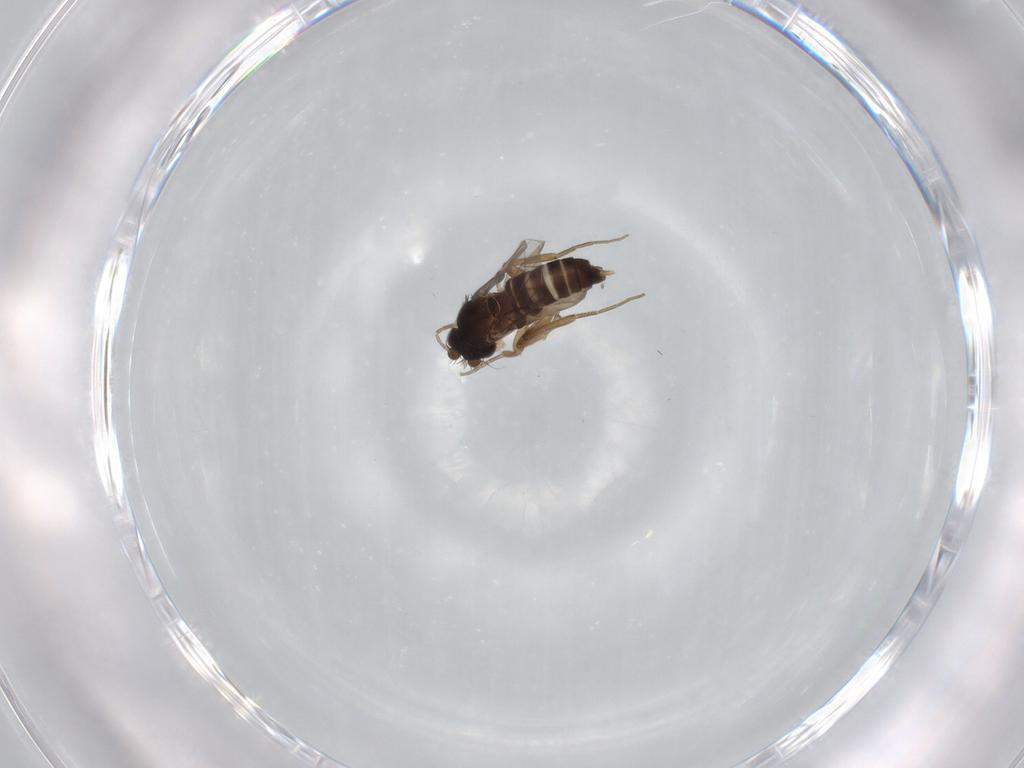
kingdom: Animalia
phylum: Arthropoda
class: Insecta
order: Diptera
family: Phoridae
